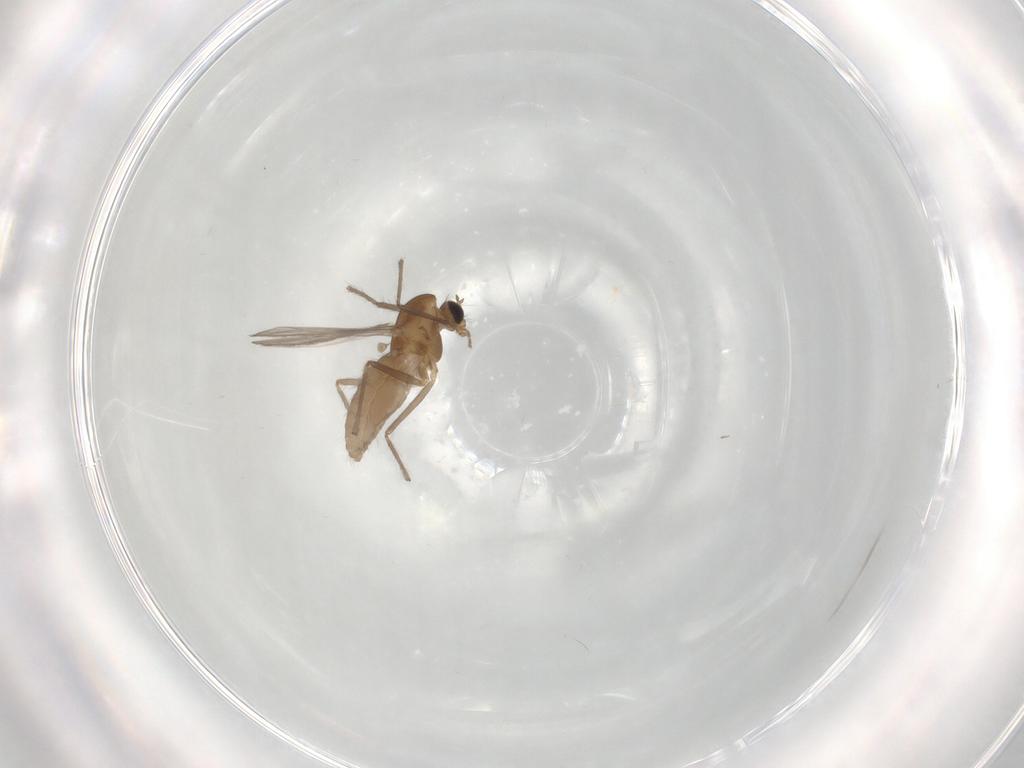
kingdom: Animalia
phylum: Arthropoda
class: Insecta
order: Diptera
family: Chironomidae
